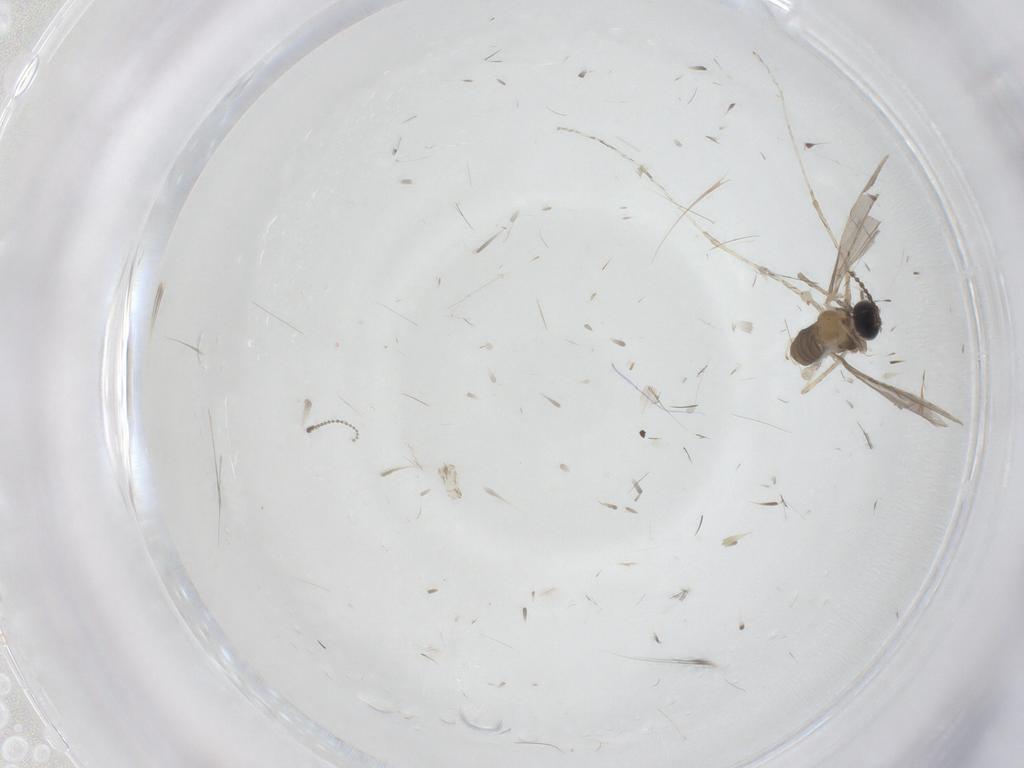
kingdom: Animalia
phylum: Arthropoda
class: Insecta
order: Diptera
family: Cecidomyiidae
